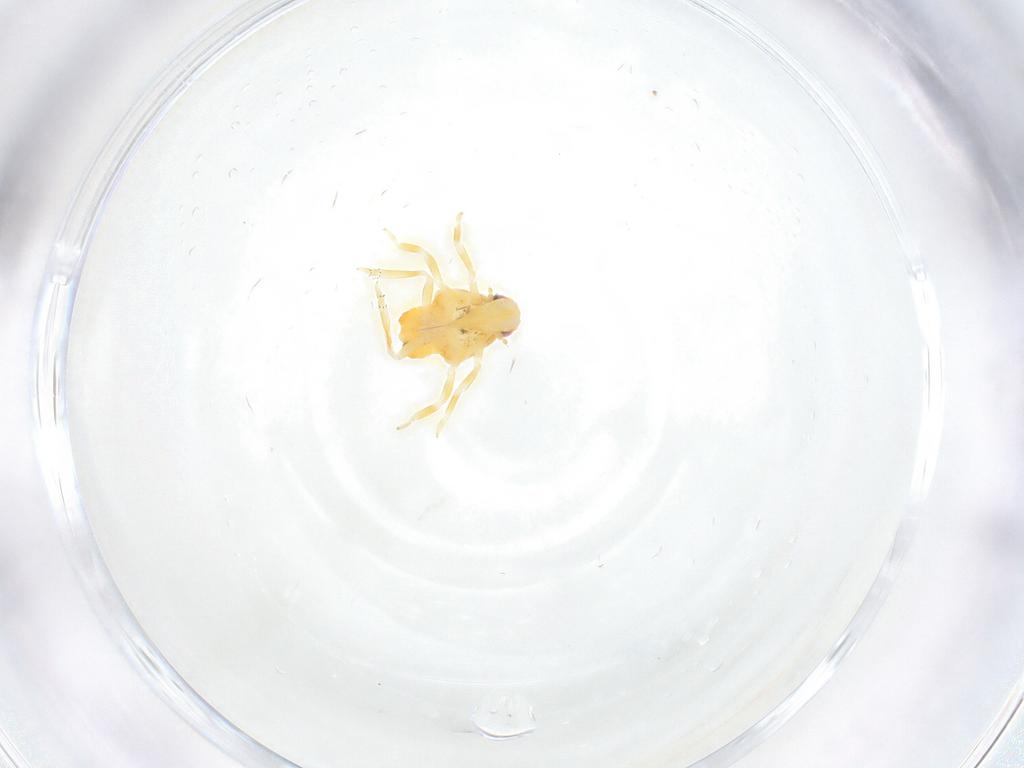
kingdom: Animalia
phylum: Arthropoda
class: Insecta
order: Hemiptera
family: Fulgoroidea_incertae_sedis
